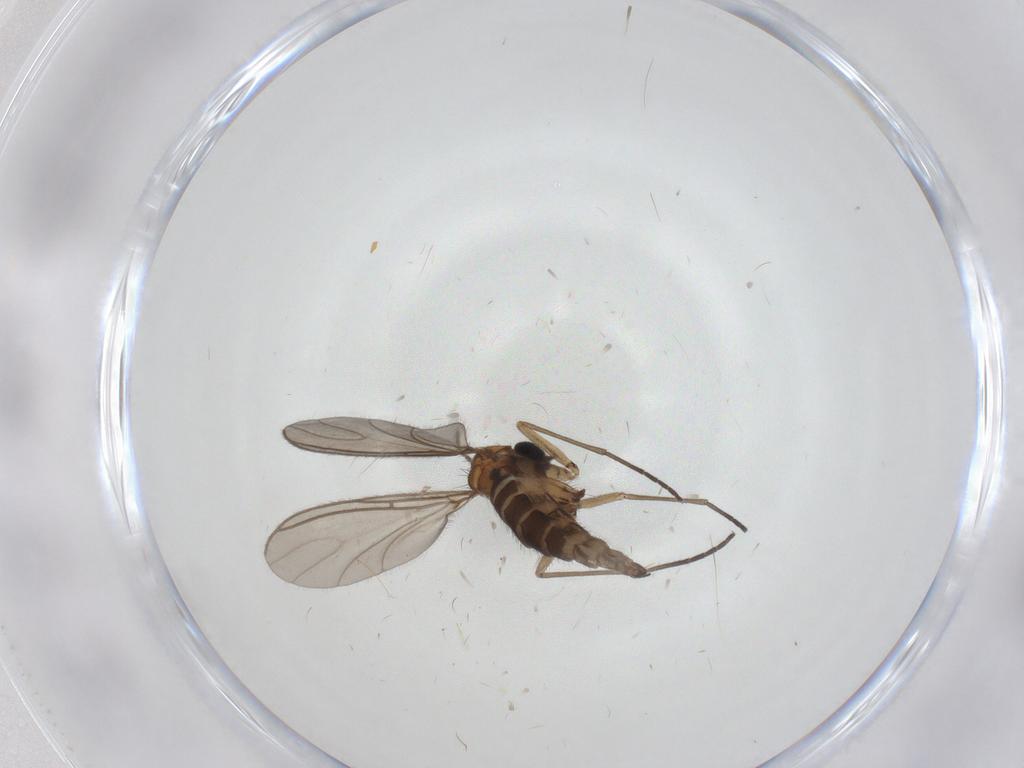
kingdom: Animalia
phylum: Arthropoda
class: Insecta
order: Diptera
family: Sciaridae
